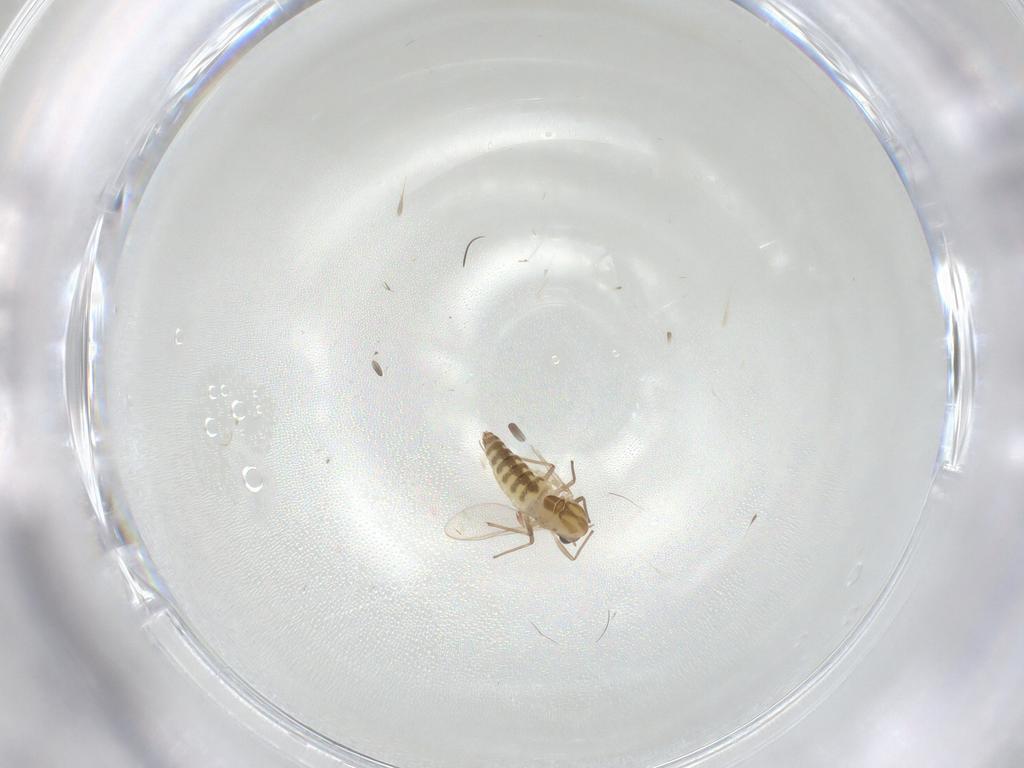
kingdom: Animalia
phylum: Arthropoda
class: Insecta
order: Diptera
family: Chironomidae
